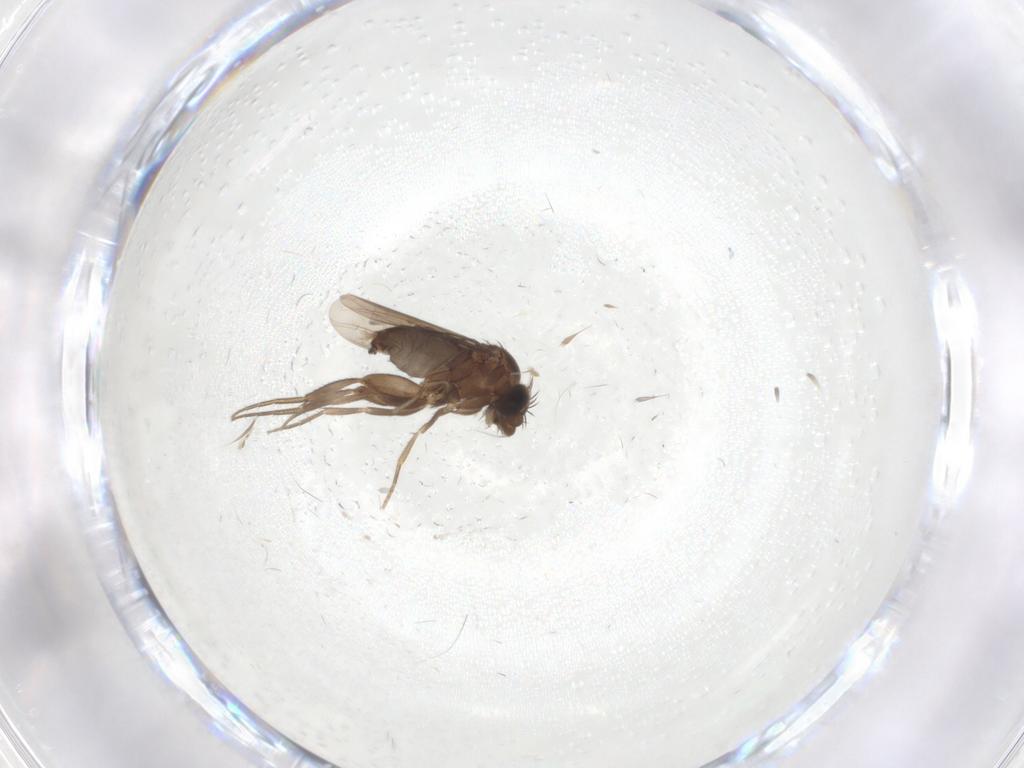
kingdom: Animalia
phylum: Arthropoda
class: Insecta
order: Diptera
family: Phoridae
